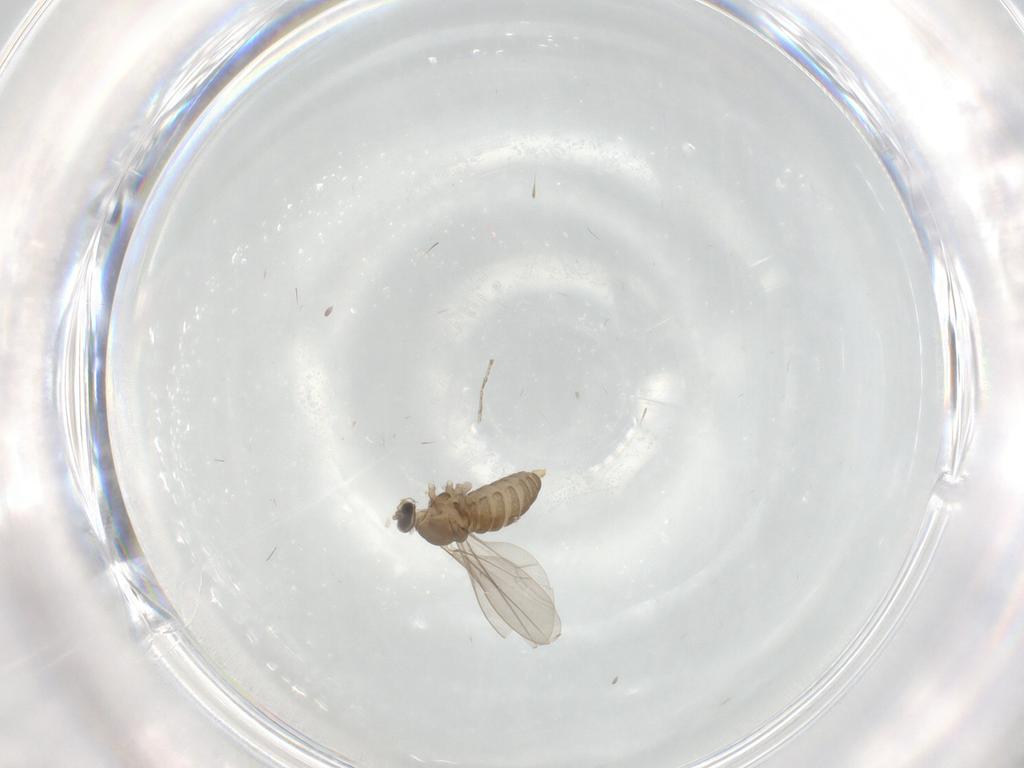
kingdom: Animalia
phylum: Arthropoda
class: Insecta
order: Diptera
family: Cecidomyiidae
